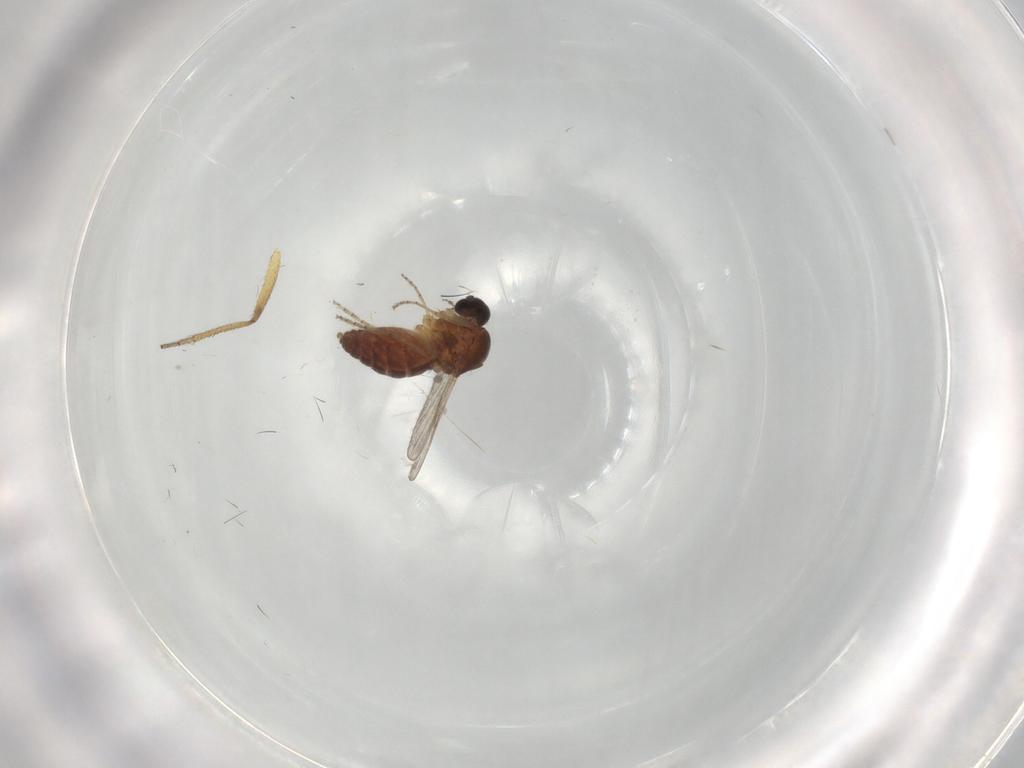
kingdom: Animalia
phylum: Arthropoda
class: Insecta
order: Diptera
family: Ceratopogonidae
